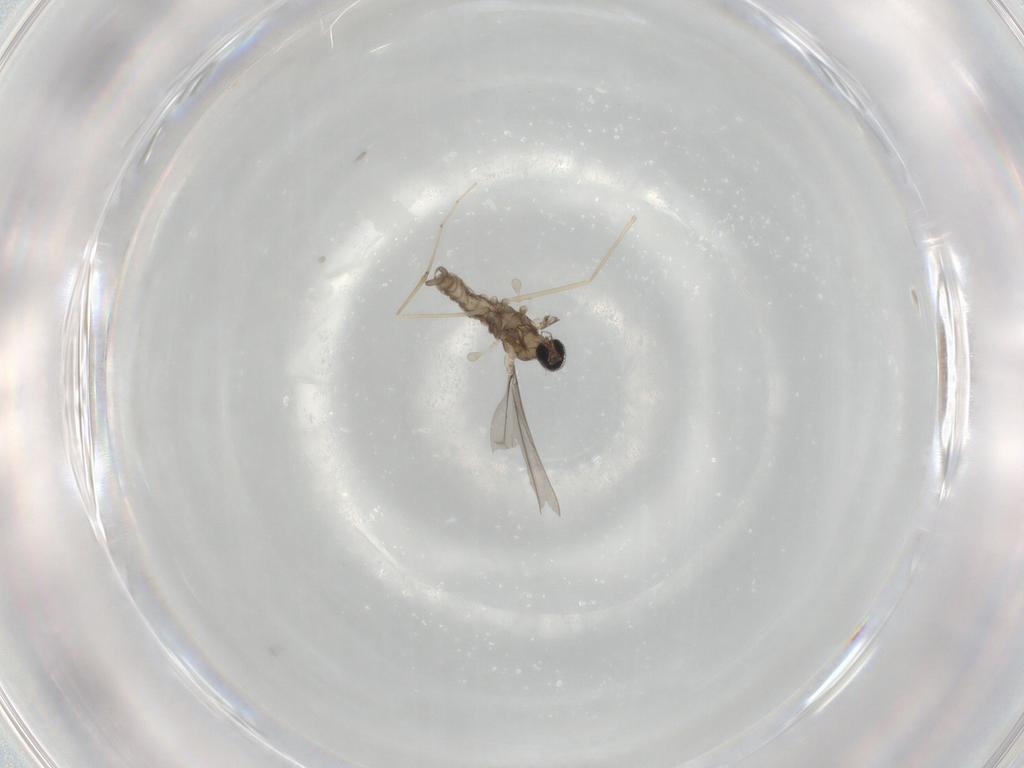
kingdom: Animalia
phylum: Arthropoda
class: Insecta
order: Diptera
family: Cecidomyiidae
